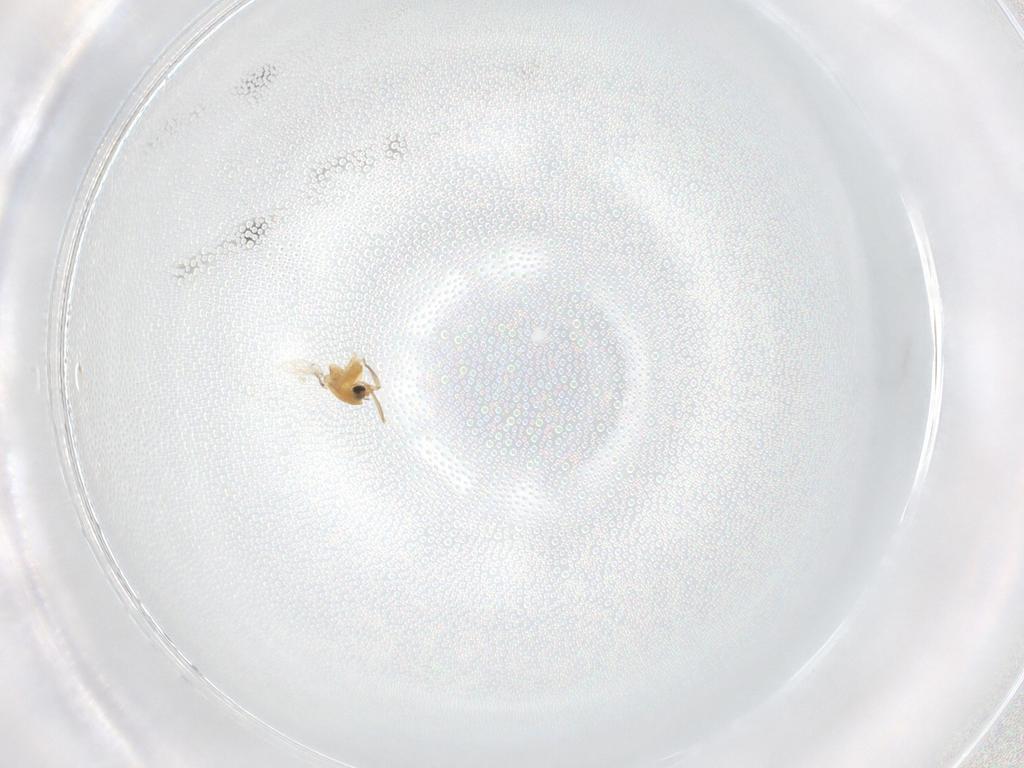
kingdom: Animalia
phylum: Arthropoda
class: Insecta
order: Diptera
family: Chironomidae
